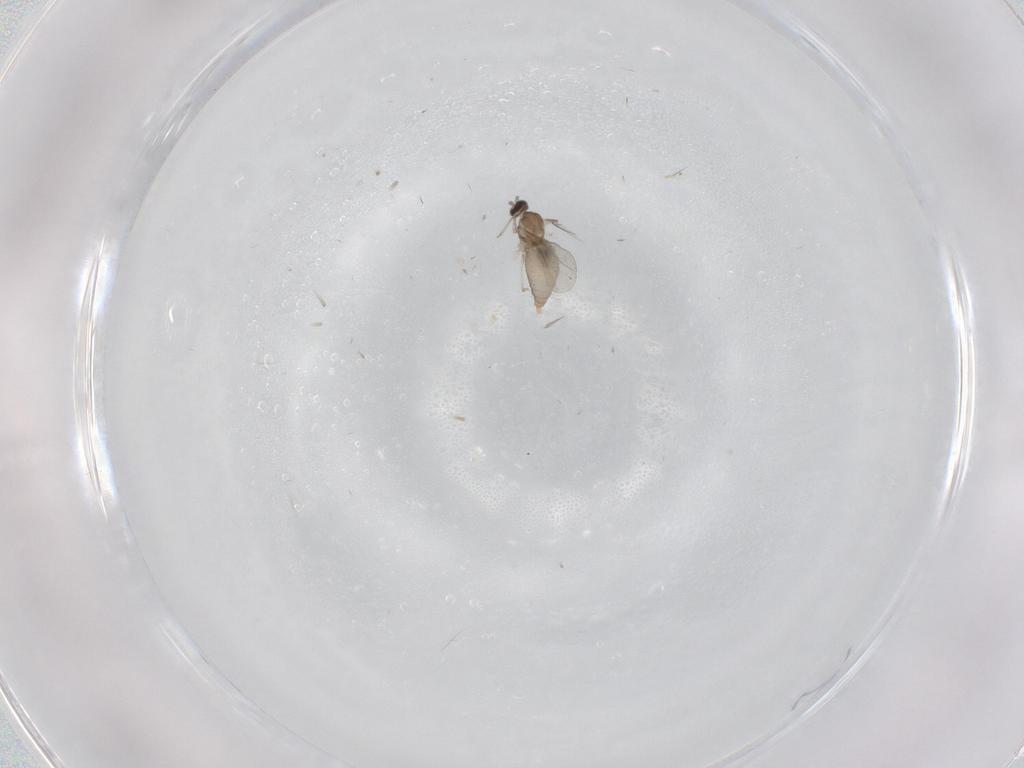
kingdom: Animalia
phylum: Arthropoda
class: Insecta
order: Diptera
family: Cecidomyiidae
